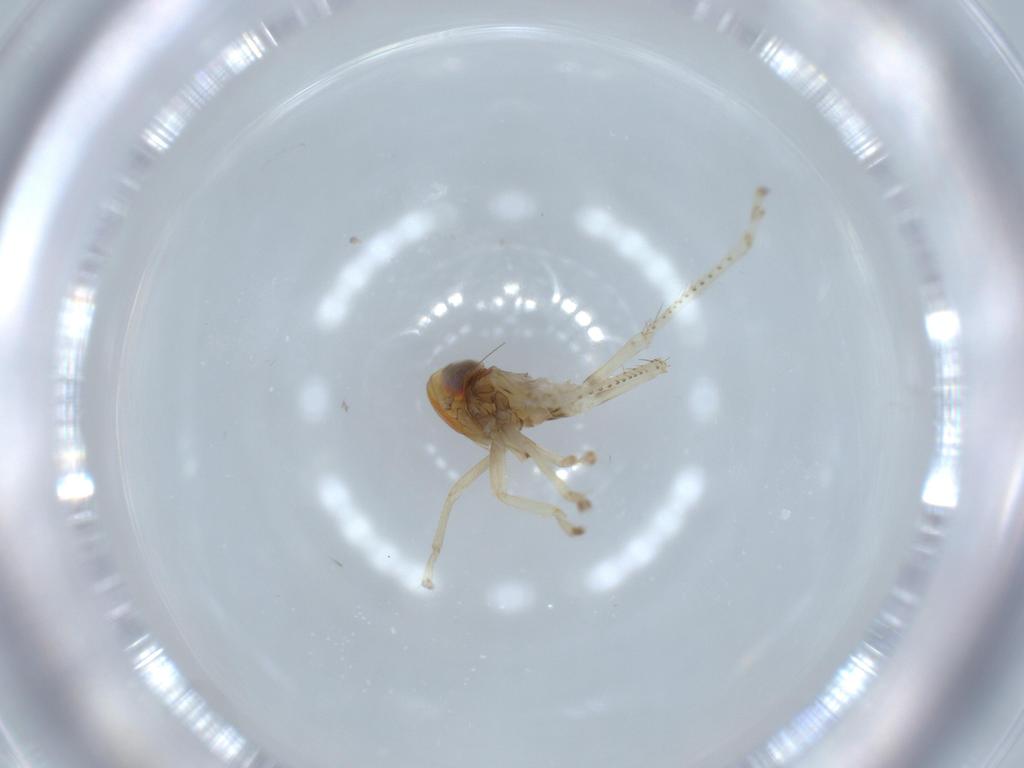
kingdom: Animalia
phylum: Arthropoda
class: Insecta
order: Hemiptera
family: Cicadellidae
